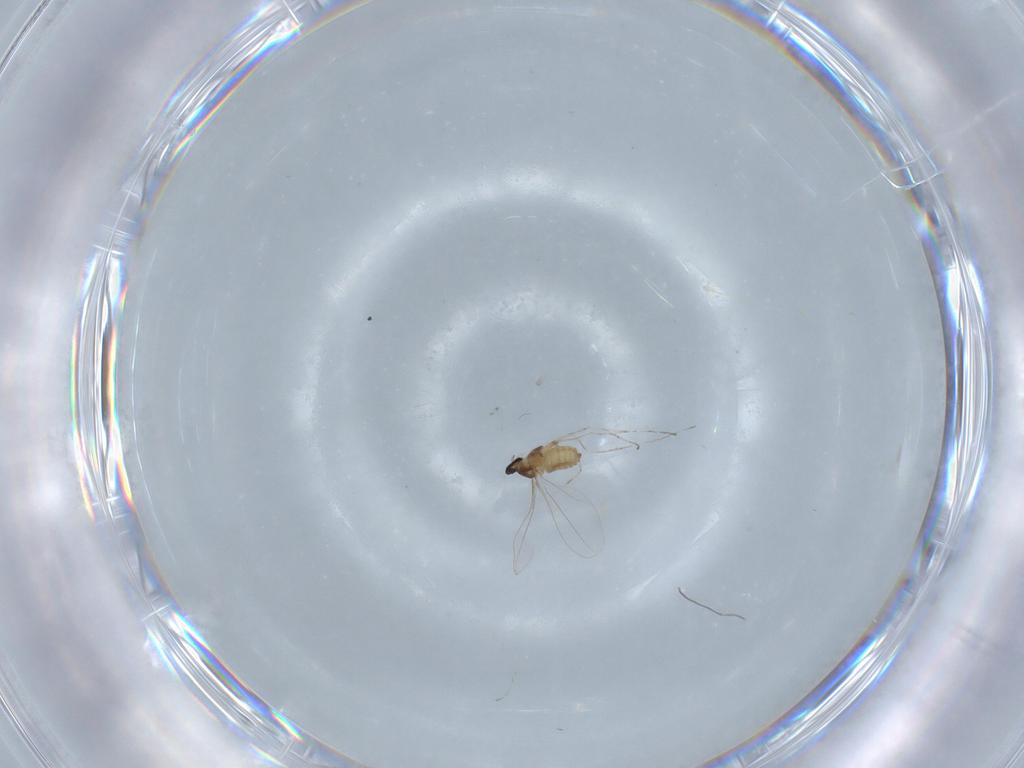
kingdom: Animalia
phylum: Arthropoda
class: Insecta
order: Diptera
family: Cecidomyiidae
